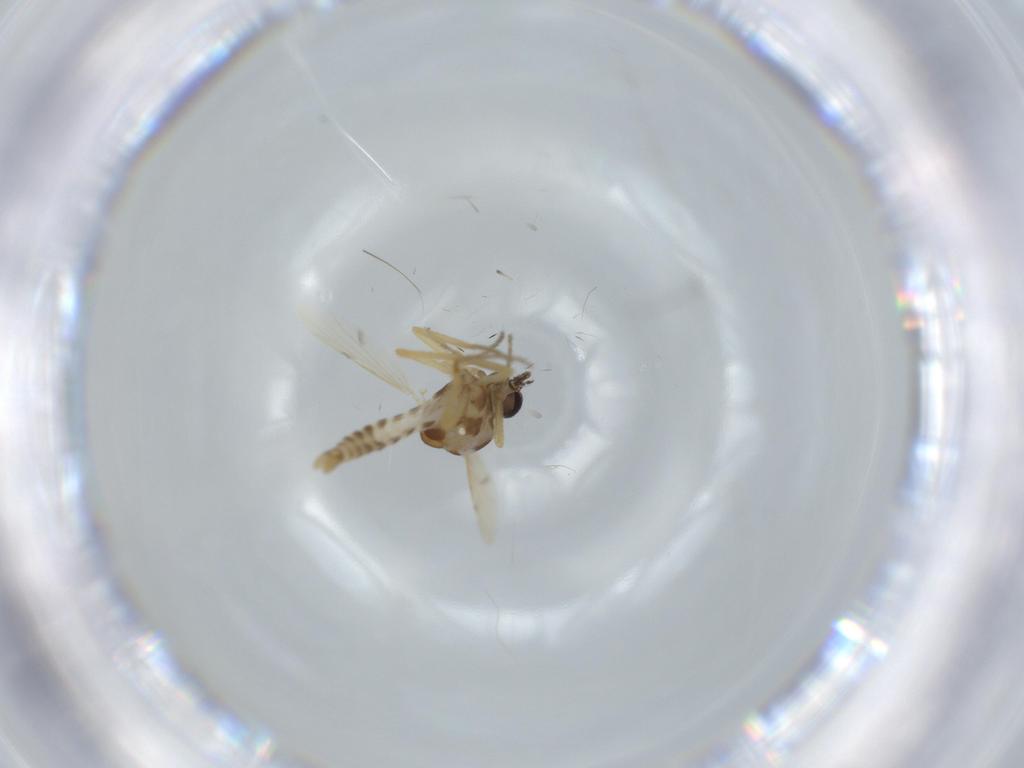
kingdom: Animalia
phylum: Arthropoda
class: Insecta
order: Diptera
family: Ceratopogonidae
